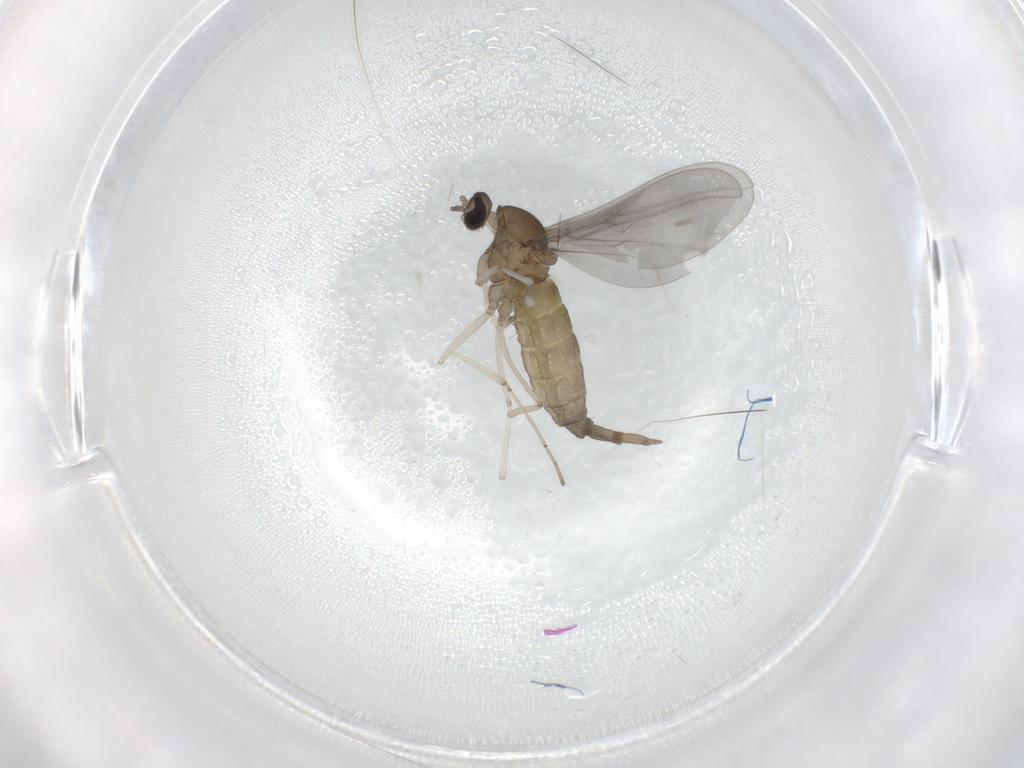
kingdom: Animalia
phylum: Arthropoda
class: Insecta
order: Diptera
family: Cecidomyiidae
